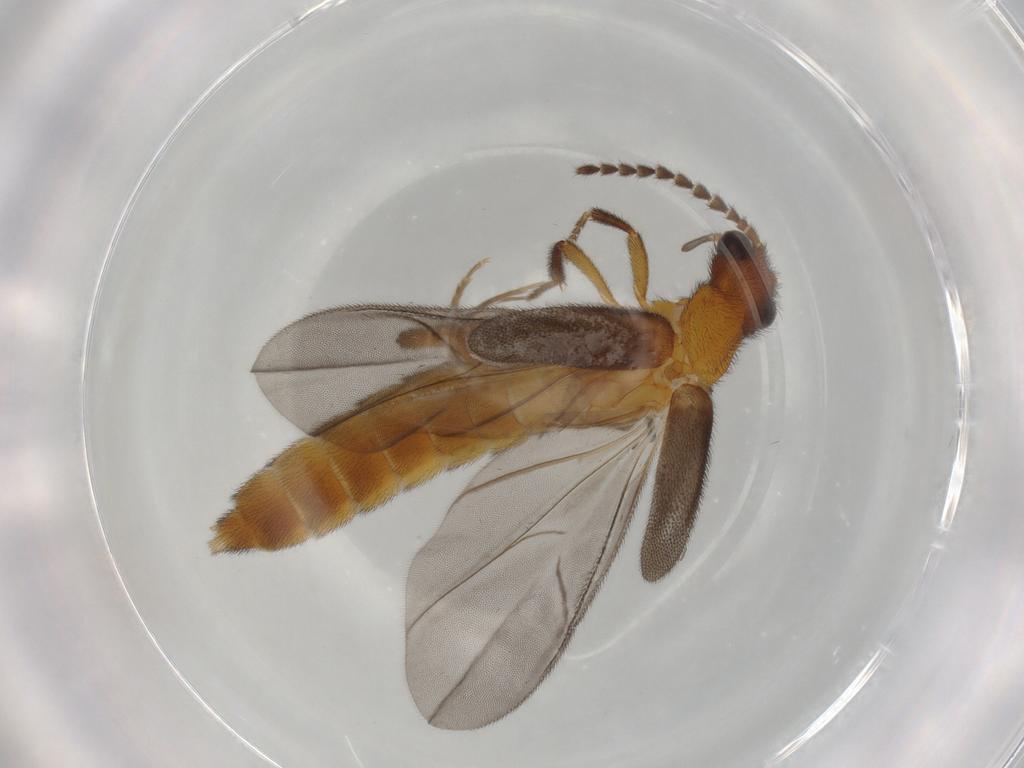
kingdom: Animalia
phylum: Arthropoda
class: Insecta
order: Coleoptera
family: Omethidae
